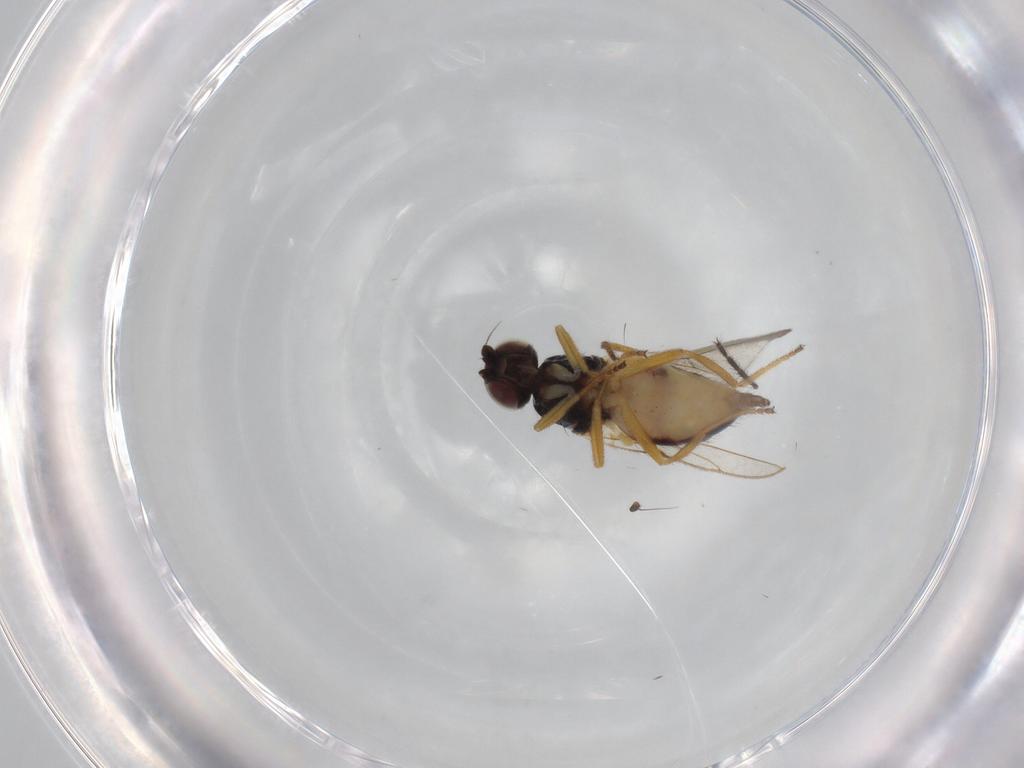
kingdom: Animalia
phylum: Arthropoda
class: Insecta
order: Diptera
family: Chloropidae
